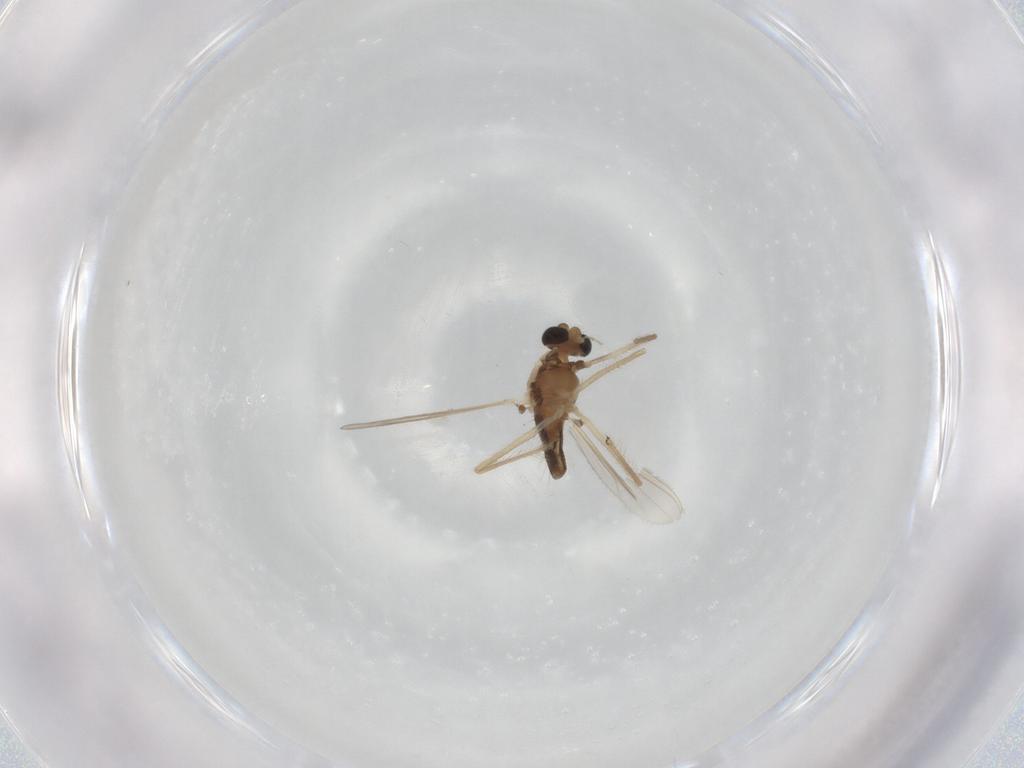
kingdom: Animalia
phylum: Arthropoda
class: Insecta
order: Diptera
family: Chironomidae
